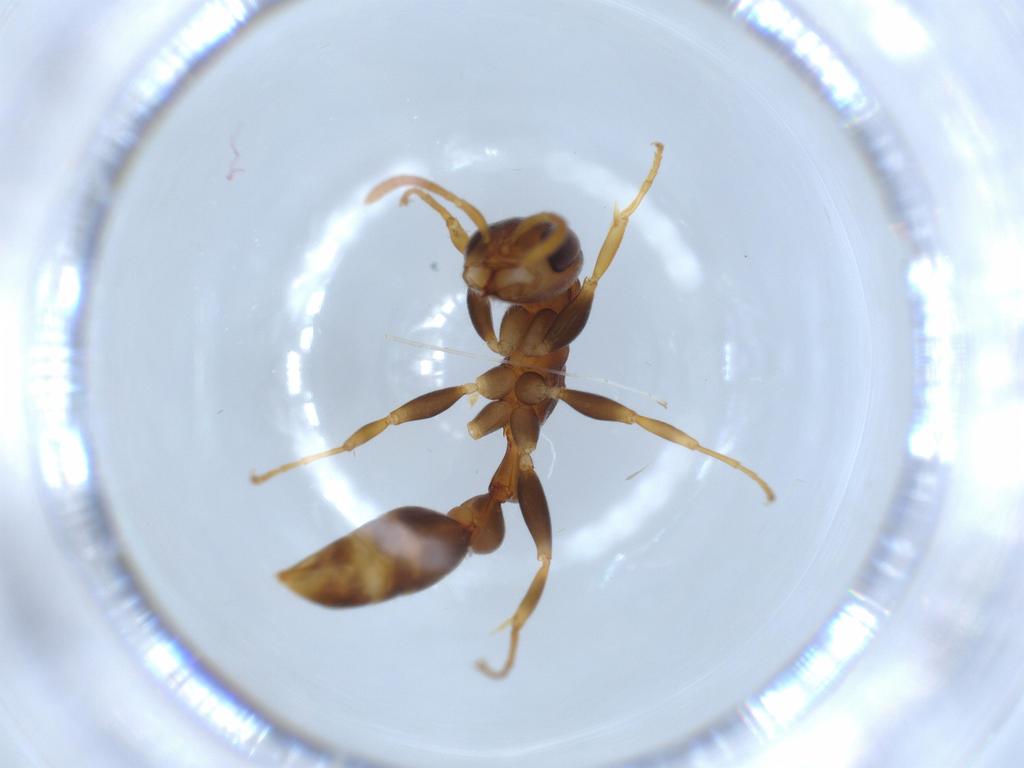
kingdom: Animalia
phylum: Arthropoda
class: Insecta
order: Hymenoptera
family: Formicidae
